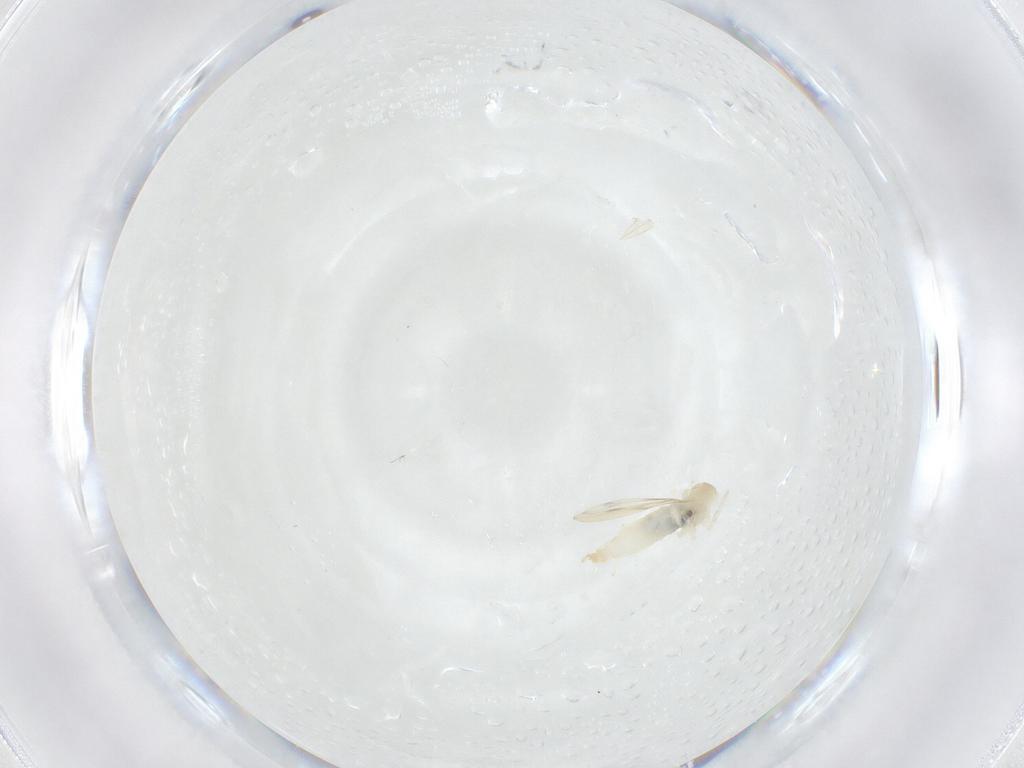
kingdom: Animalia
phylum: Arthropoda
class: Insecta
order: Diptera
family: Cecidomyiidae
